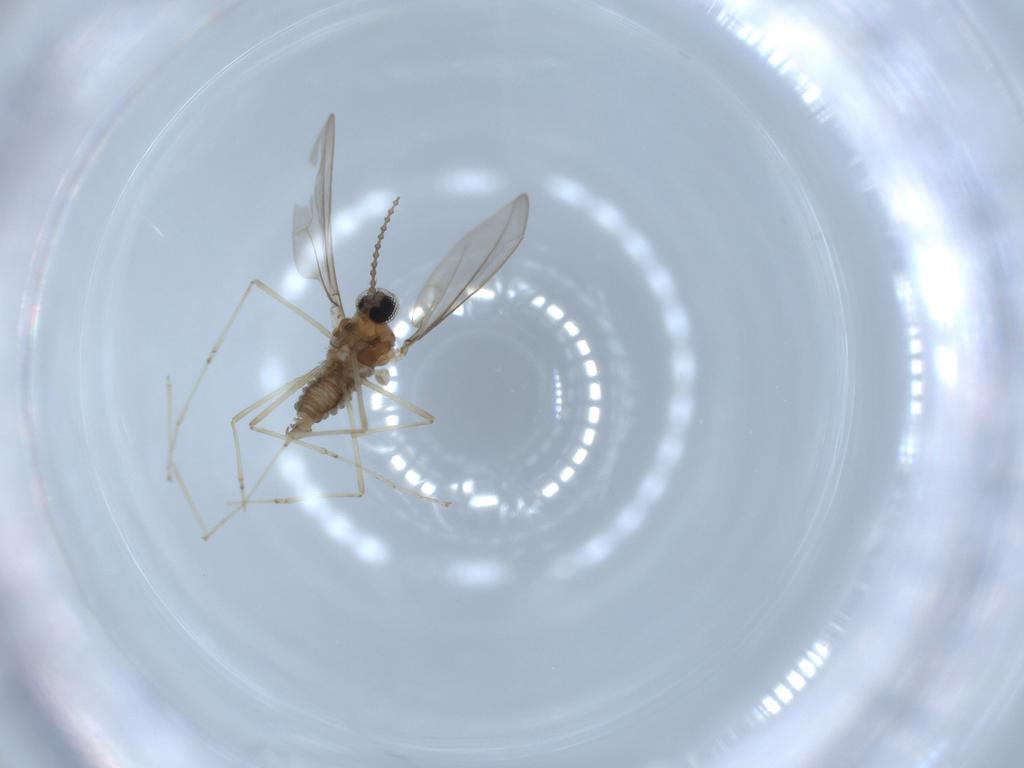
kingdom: Animalia
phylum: Arthropoda
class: Insecta
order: Diptera
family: Cecidomyiidae
